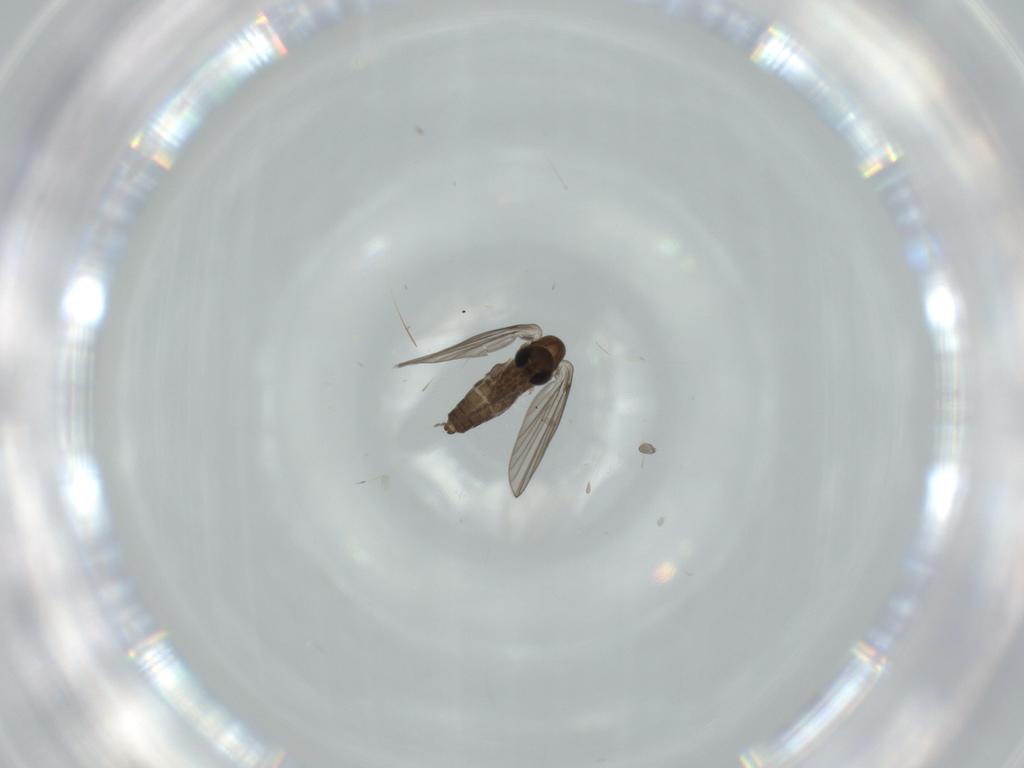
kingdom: Animalia
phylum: Arthropoda
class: Insecta
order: Diptera
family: Psychodidae
